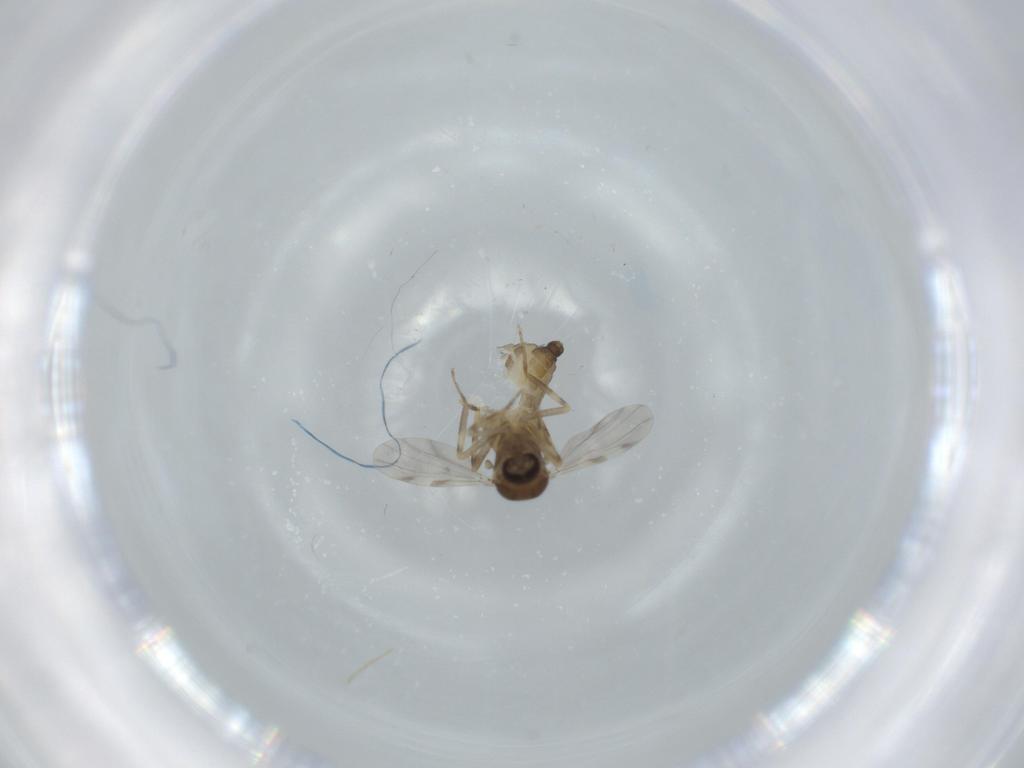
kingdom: Animalia
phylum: Arthropoda
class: Insecta
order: Diptera
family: Ceratopogonidae
